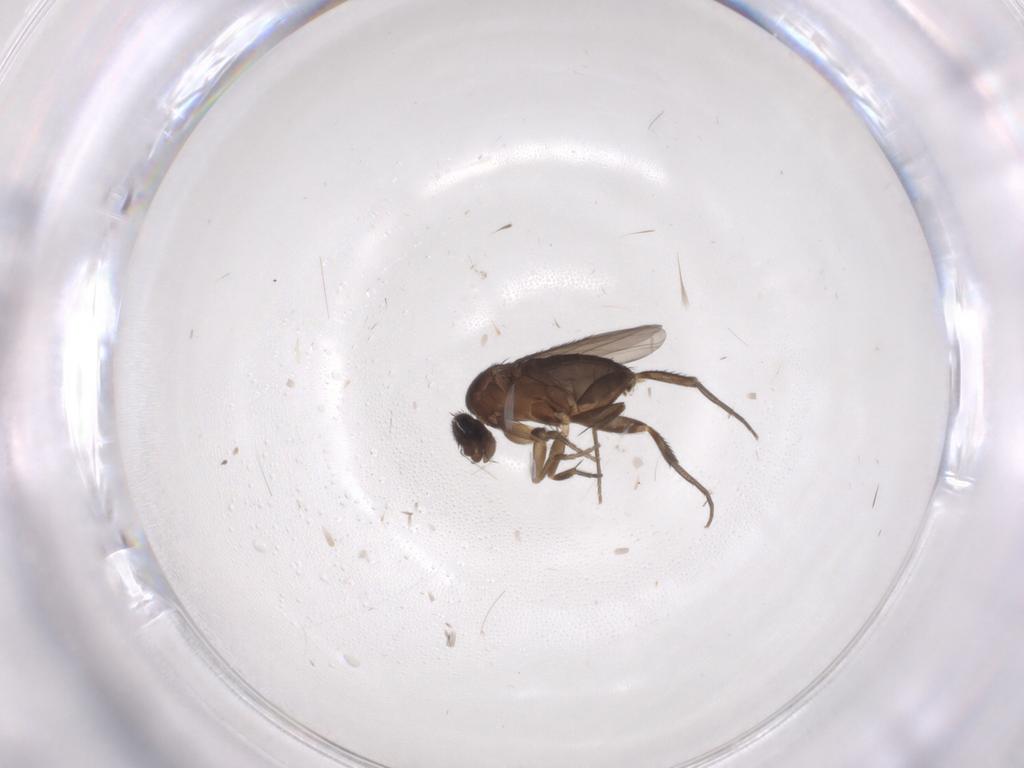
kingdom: Animalia
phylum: Arthropoda
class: Insecta
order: Diptera
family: Phoridae
